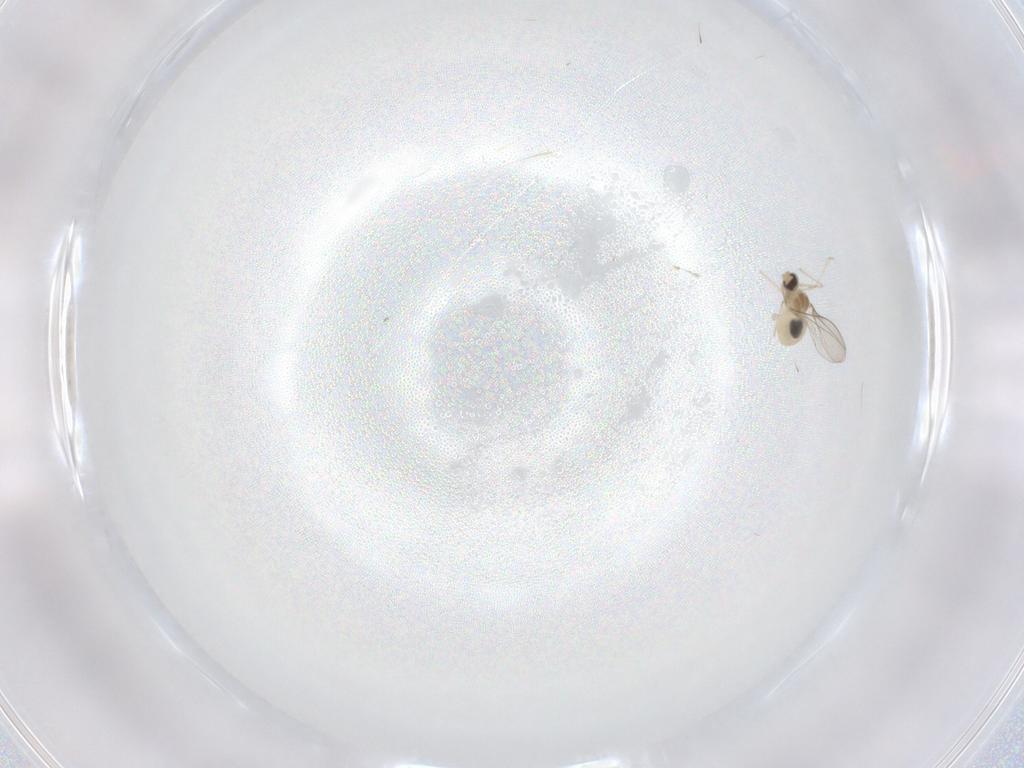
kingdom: Animalia
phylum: Arthropoda
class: Insecta
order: Diptera
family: Cecidomyiidae
